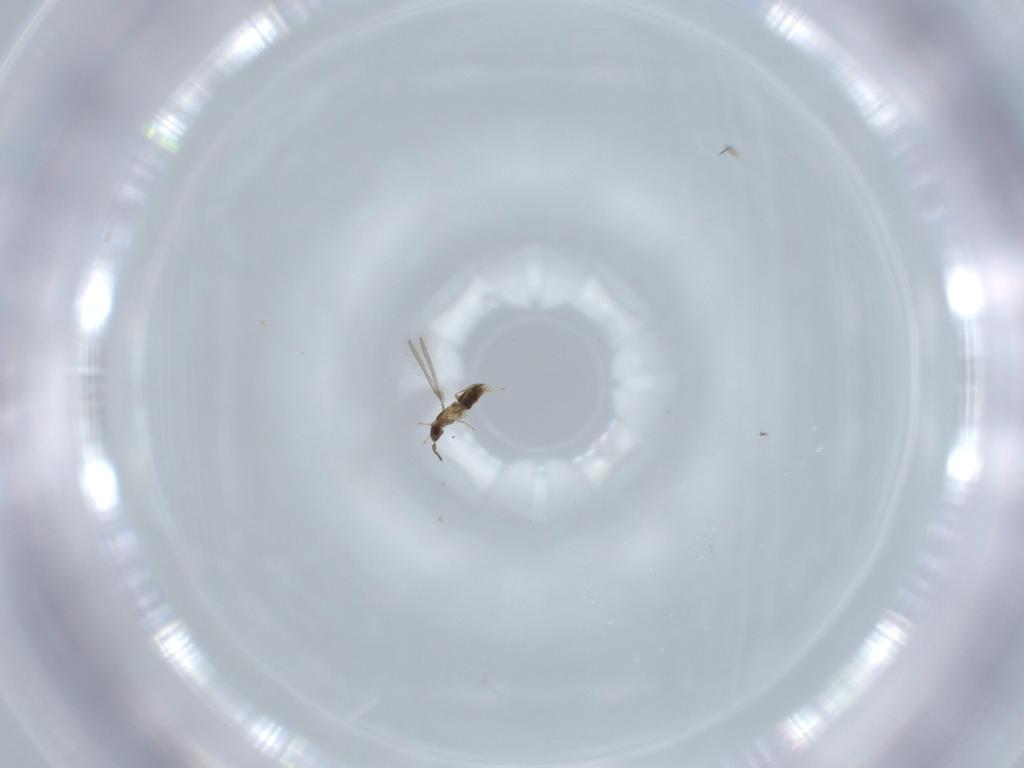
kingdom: Animalia
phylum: Arthropoda
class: Insecta
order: Hymenoptera
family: Mymaridae
